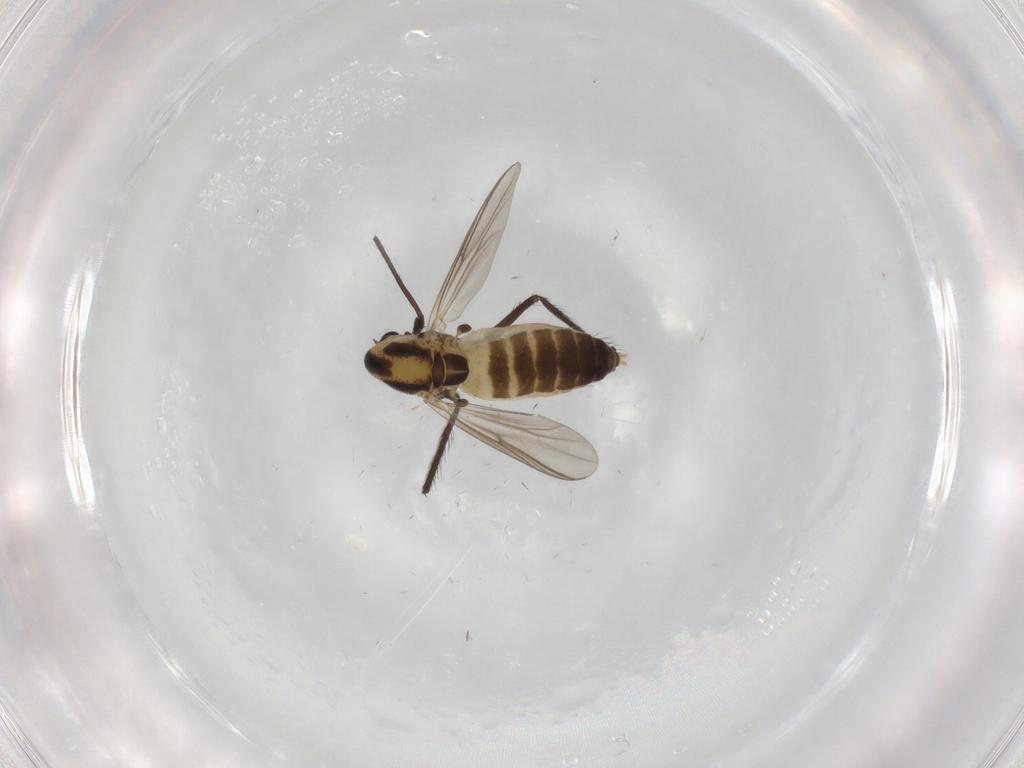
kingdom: Animalia
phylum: Arthropoda
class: Insecta
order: Diptera
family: Chironomidae
